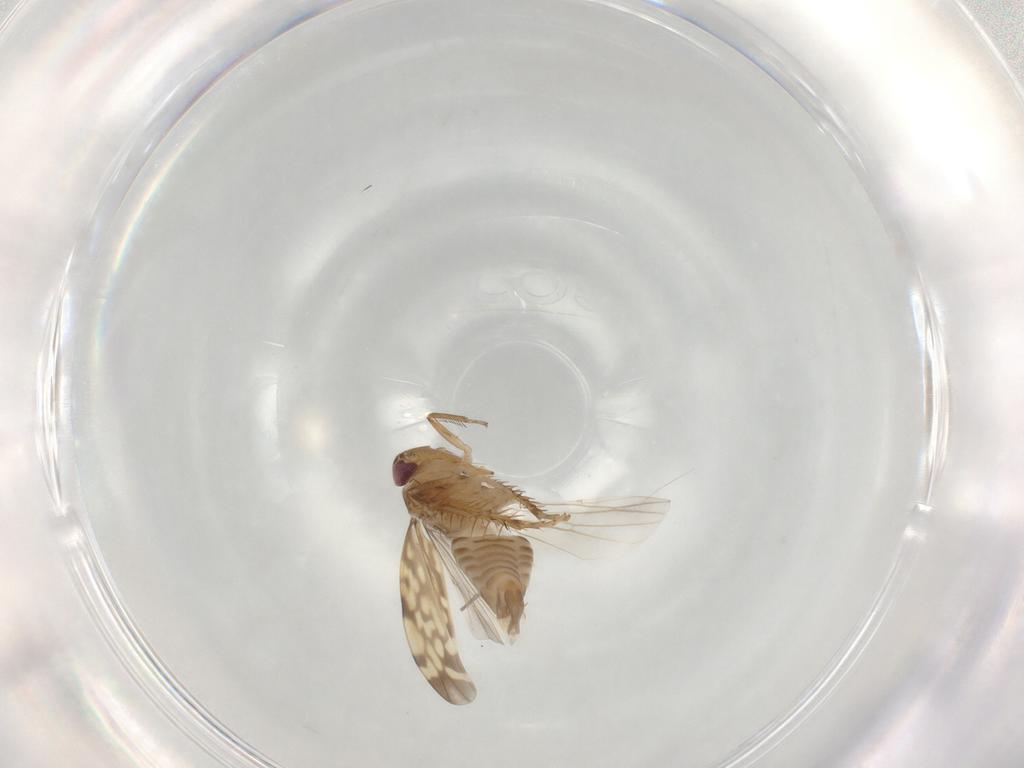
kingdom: Animalia
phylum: Arthropoda
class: Insecta
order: Hemiptera
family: Cicadellidae
